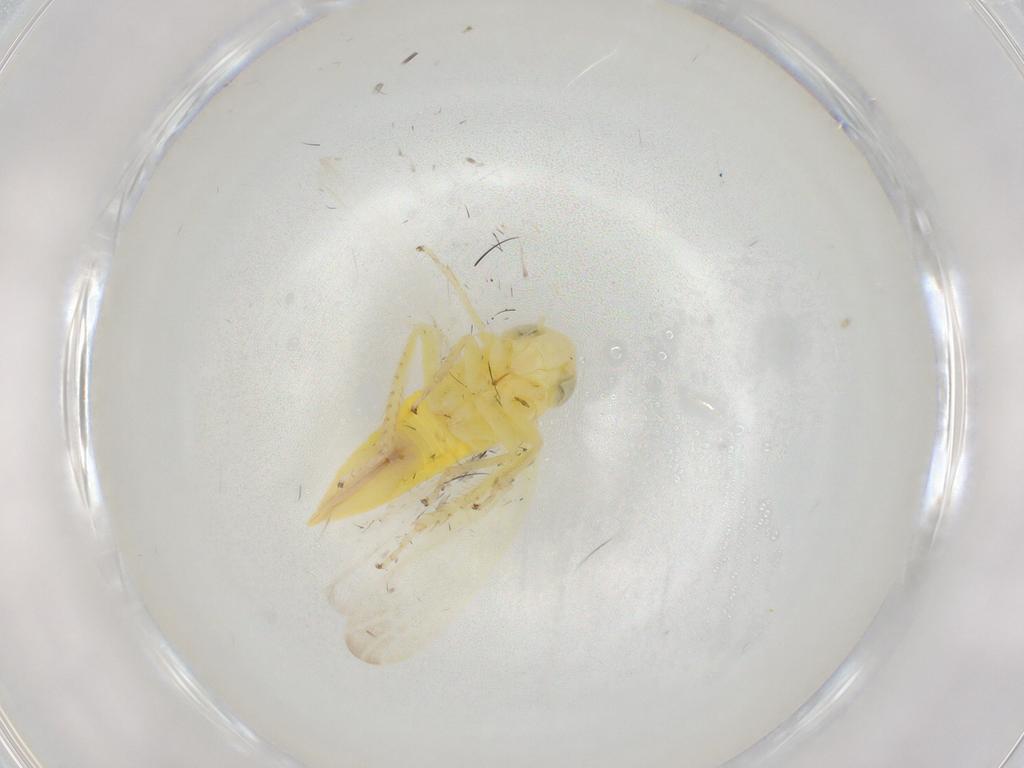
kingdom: Animalia
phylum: Arthropoda
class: Insecta
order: Hemiptera
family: Cicadellidae
